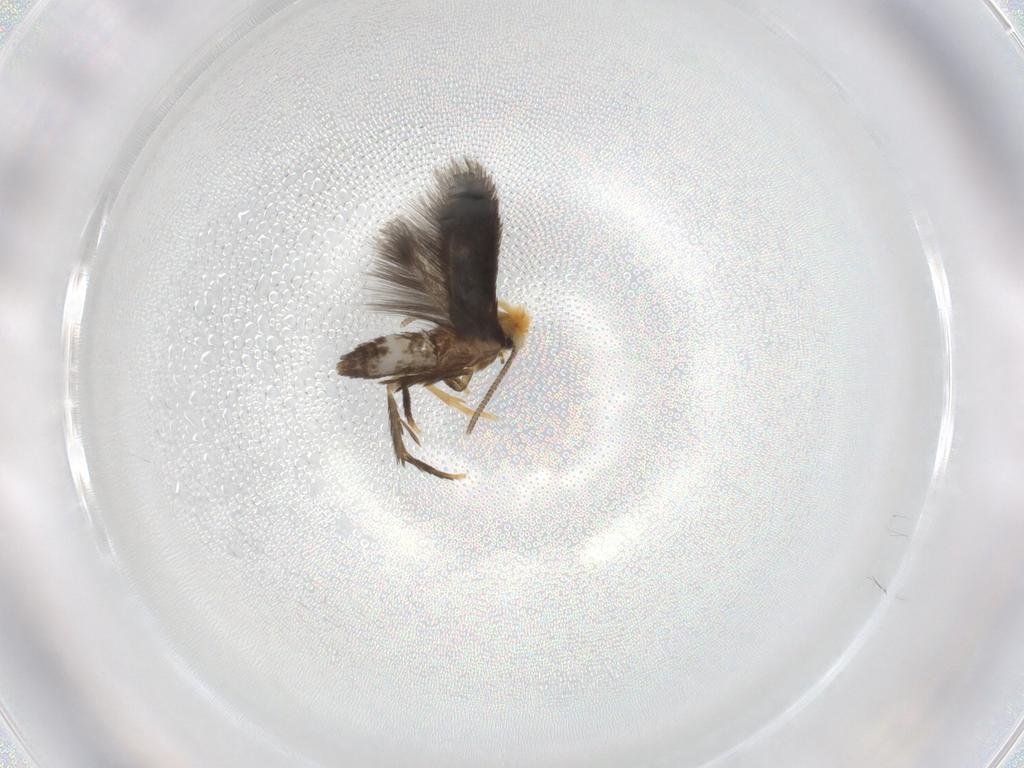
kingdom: Animalia
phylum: Arthropoda
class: Insecta
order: Lepidoptera
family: Nepticulidae
